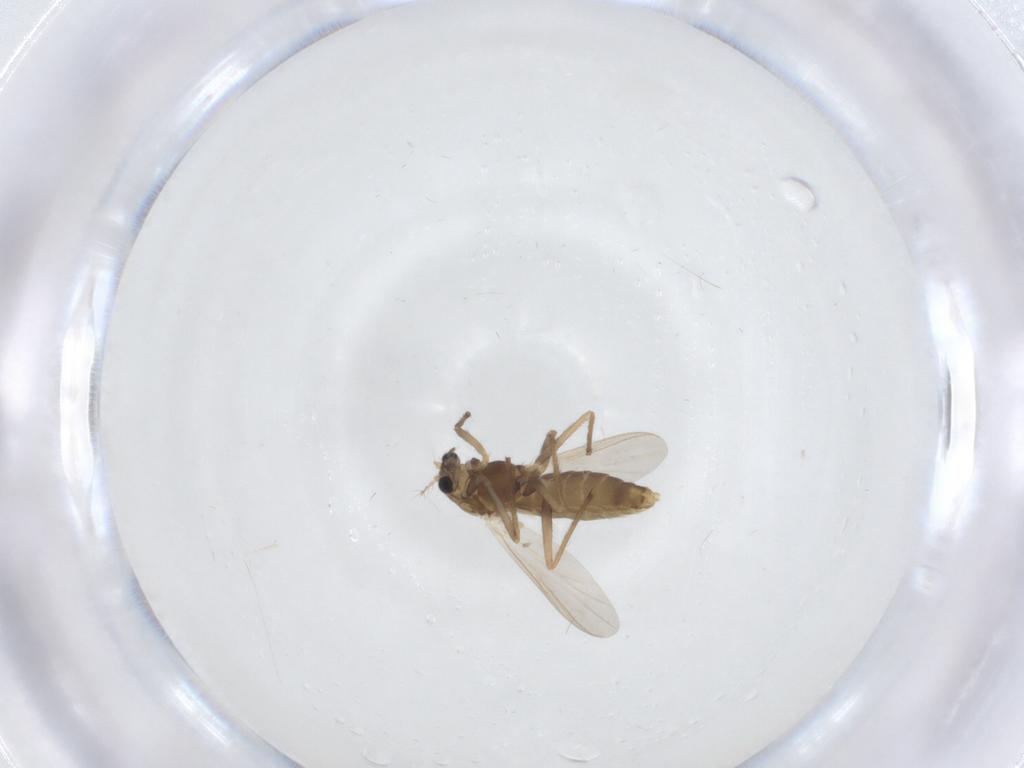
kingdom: Animalia
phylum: Arthropoda
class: Insecta
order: Diptera
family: Chironomidae
